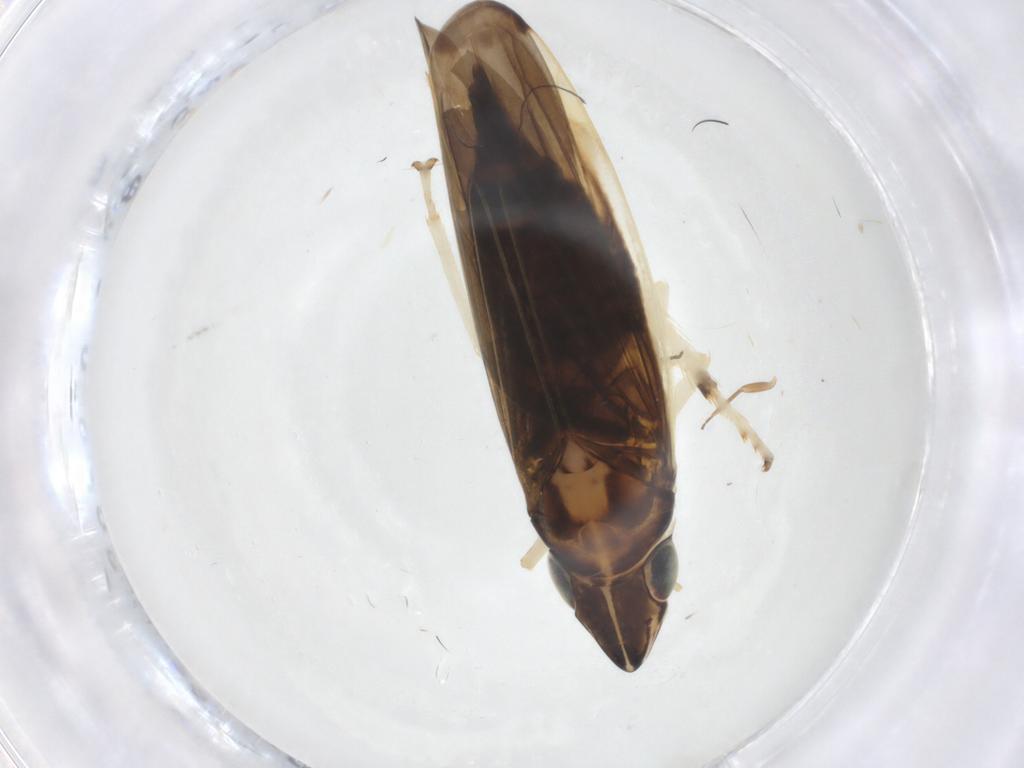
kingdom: Animalia
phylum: Arthropoda
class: Insecta
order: Hemiptera
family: Cicadellidae
